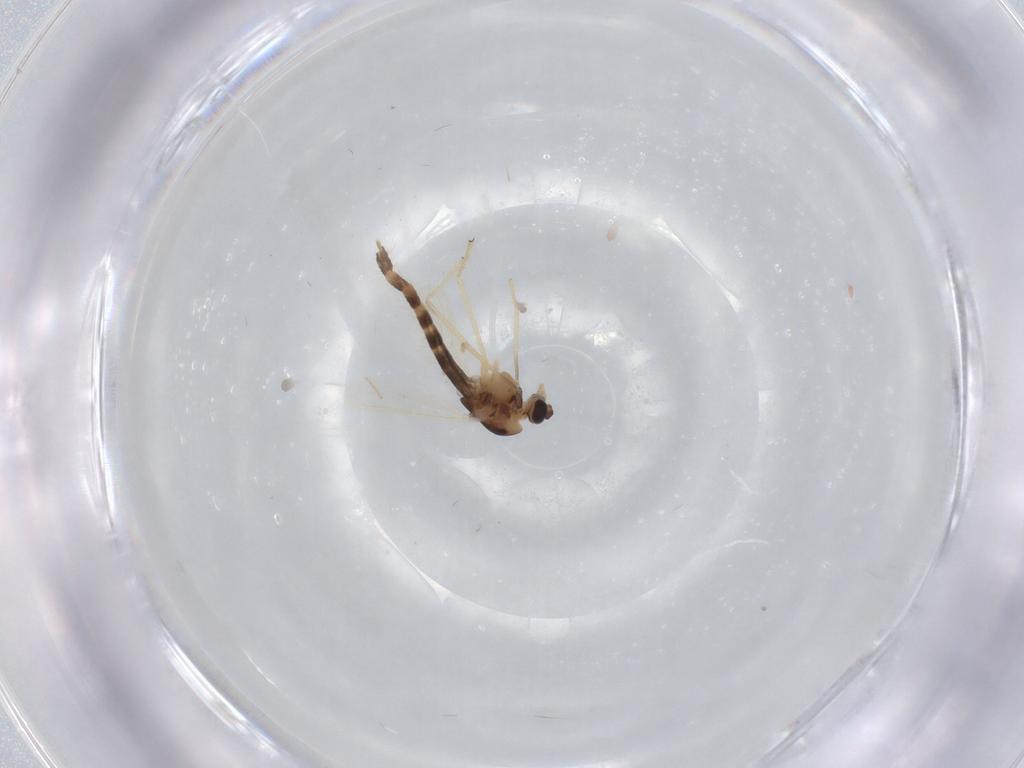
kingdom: Animalia
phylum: Arthropoda
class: Insecta
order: Diptera
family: Chironomidae
